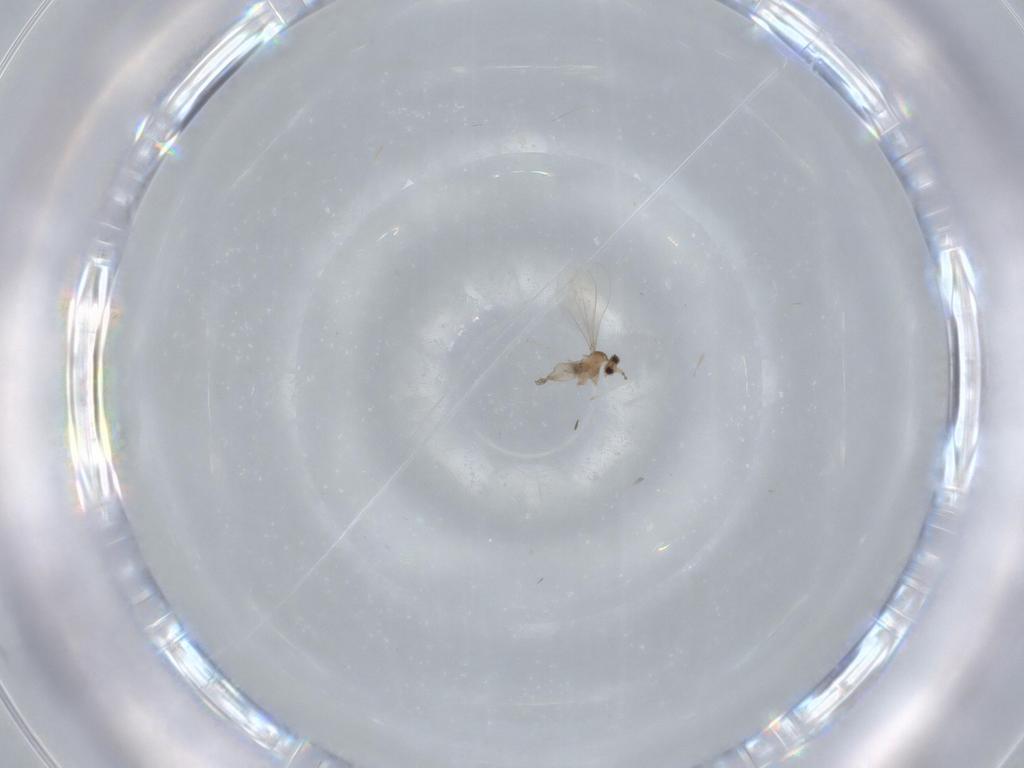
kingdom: Animalia
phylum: Arthropoda
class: Insecta
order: Diptera
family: Cecidomyiidae
